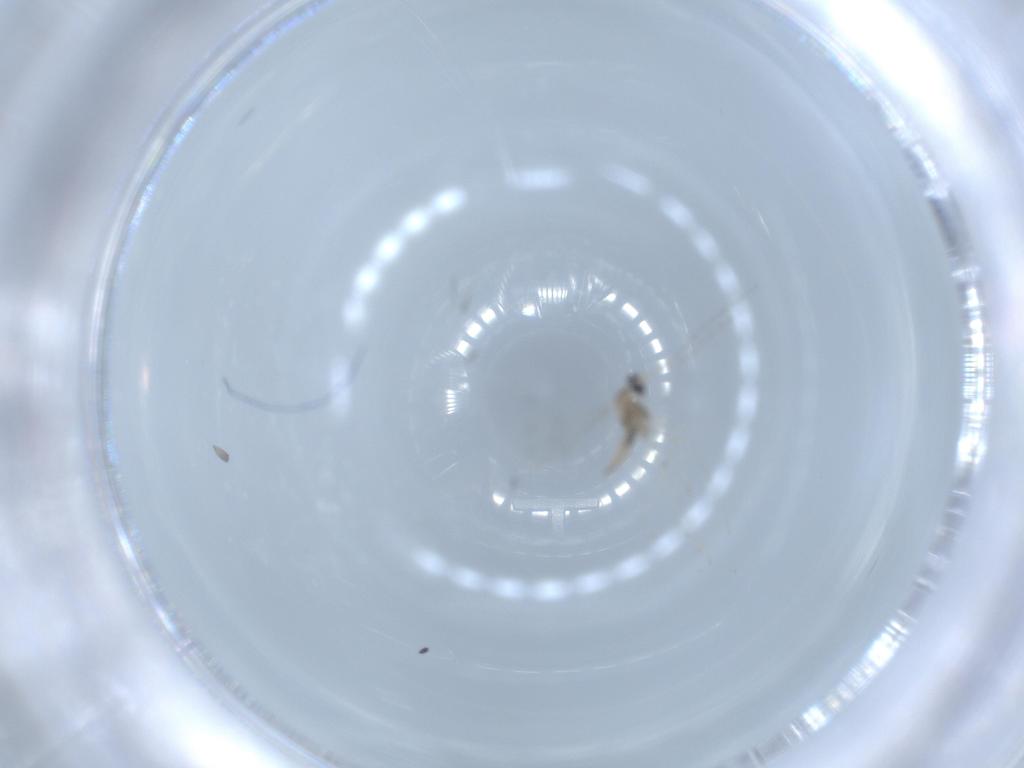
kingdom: Animalia
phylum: Arthropoda
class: Insecta
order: Diptera
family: Sciaridae
